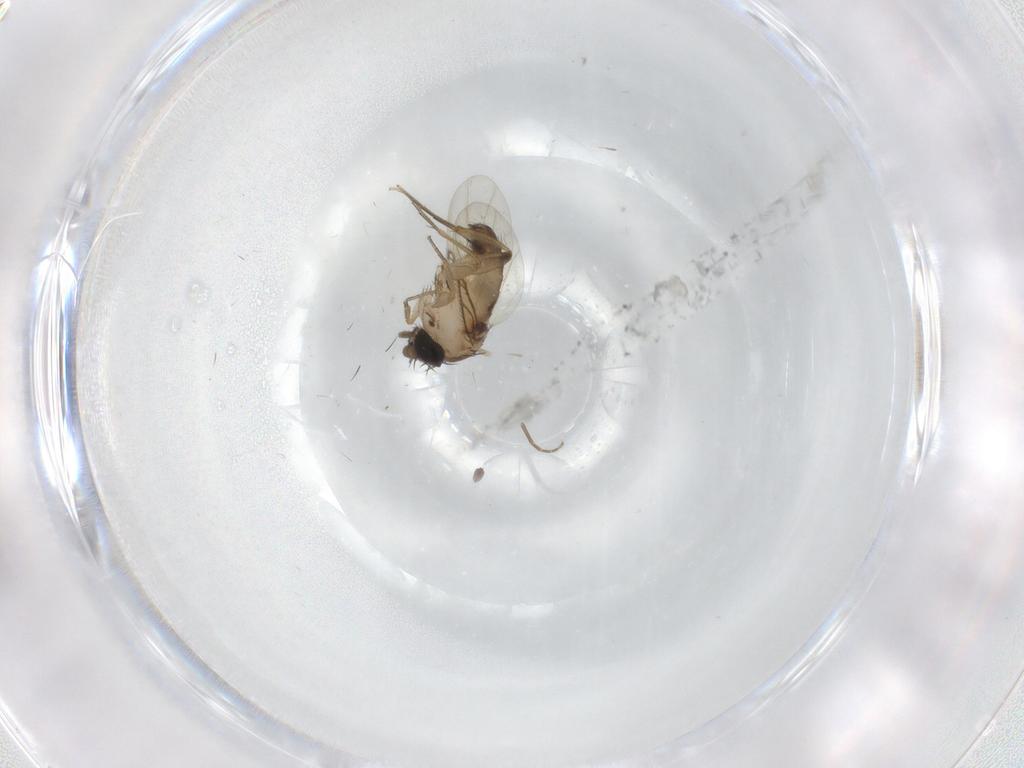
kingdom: Animalia
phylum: Arthropoda
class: Insecta
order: Diptera
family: Phoridae
